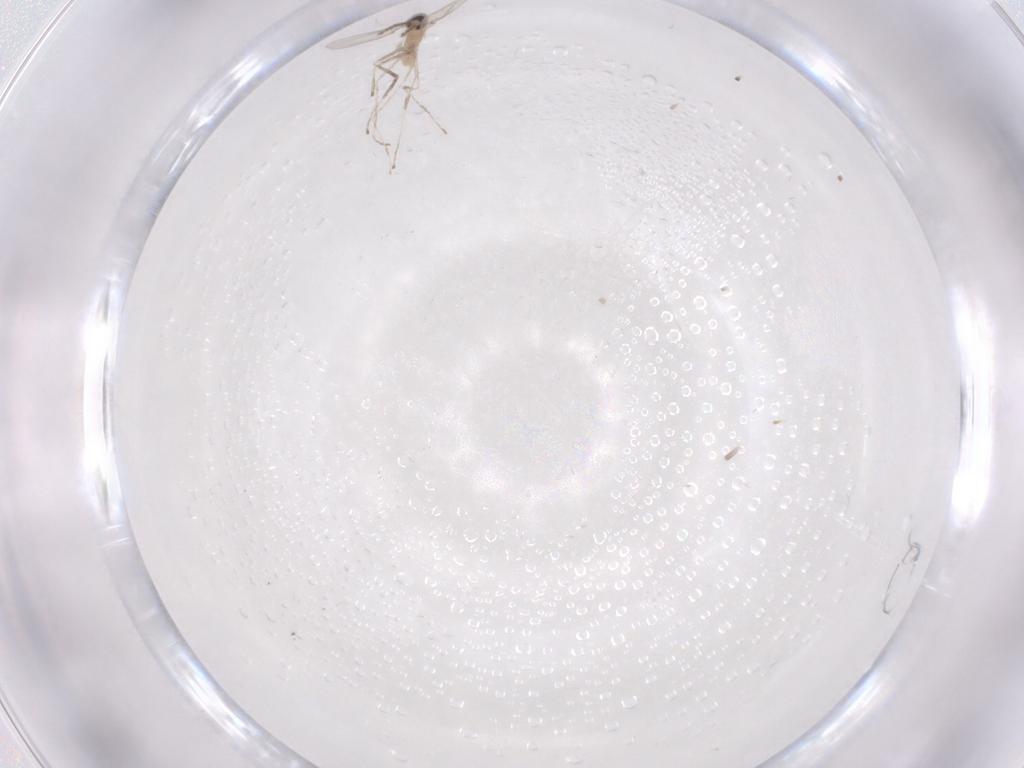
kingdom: Animalia
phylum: Arthropoda
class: Insecta
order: Diptera
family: Cecidomyiidae
